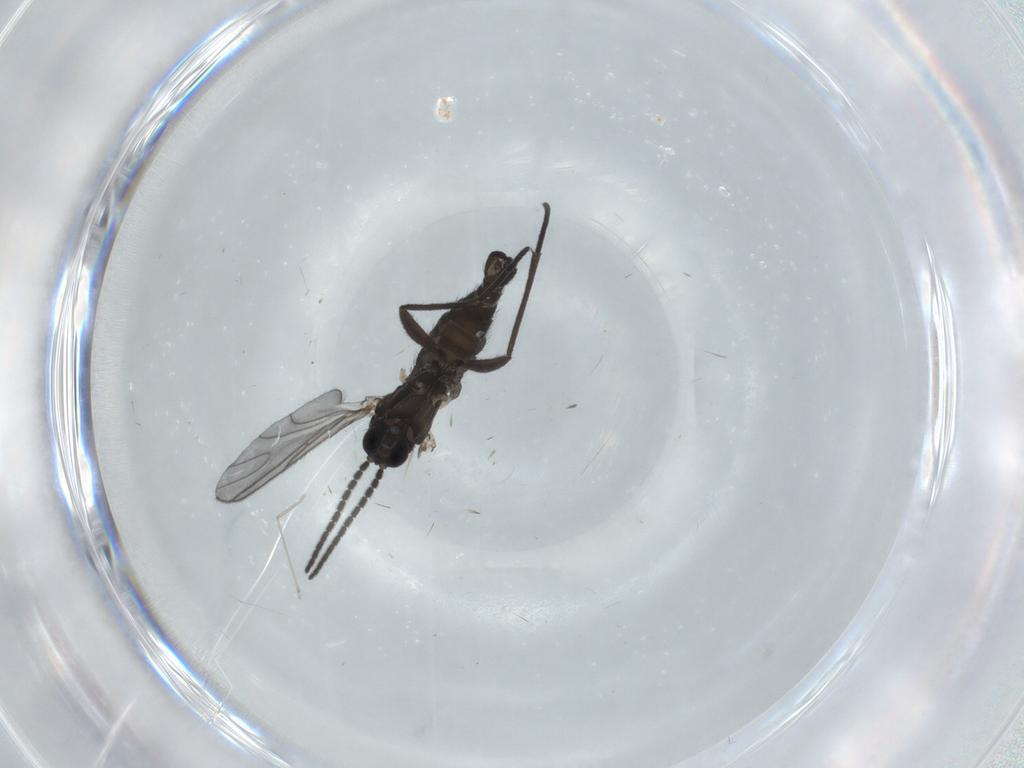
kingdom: Animalia
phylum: Arthropoda
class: Insecta
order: Diptera
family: Sciaridae
